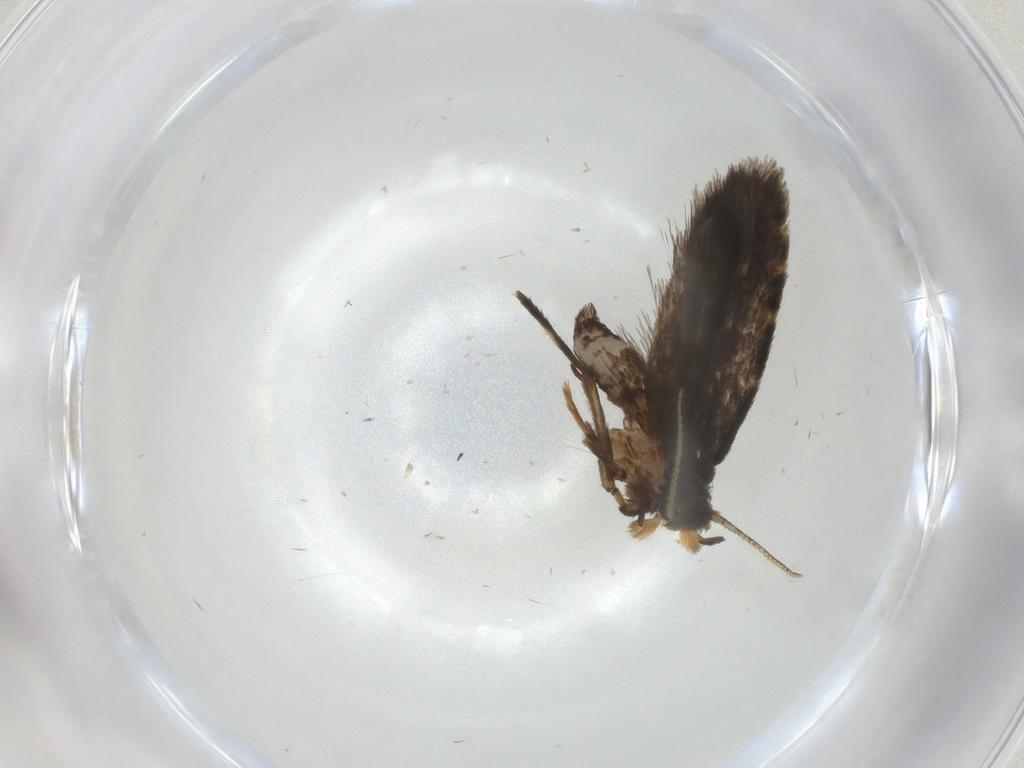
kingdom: Animalia
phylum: Arthropoda
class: Insecta
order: Lepidoptera
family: Psychidae
